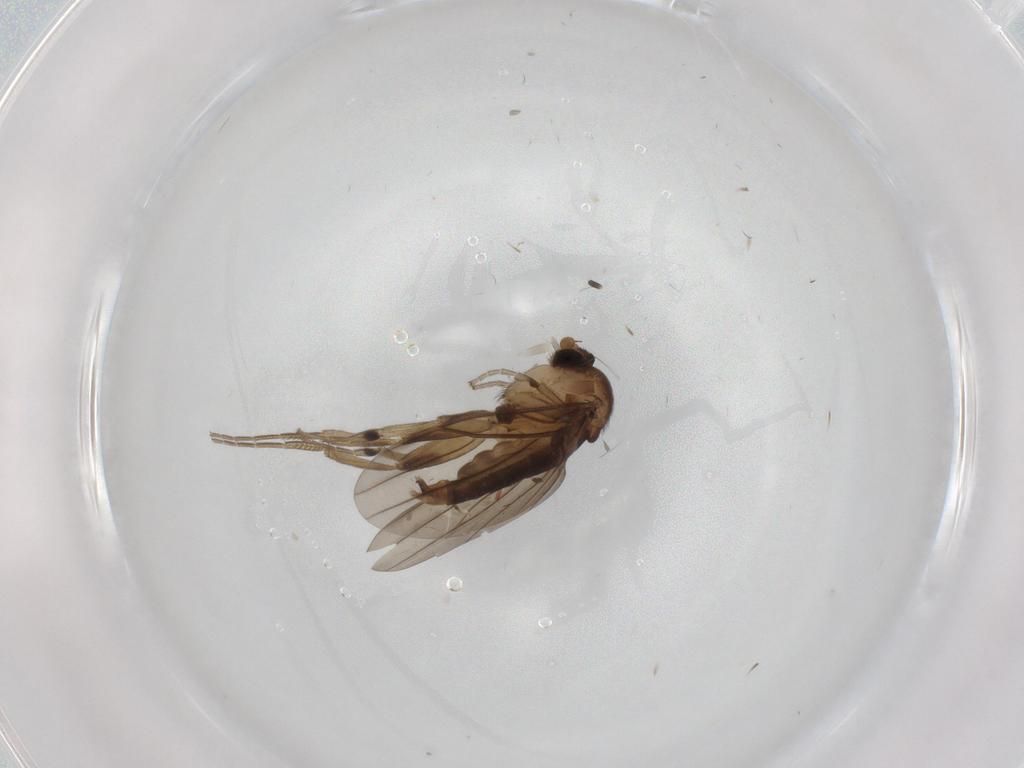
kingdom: Animalia
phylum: Arthropoda
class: Insecta
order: Diptera
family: Phoridae
